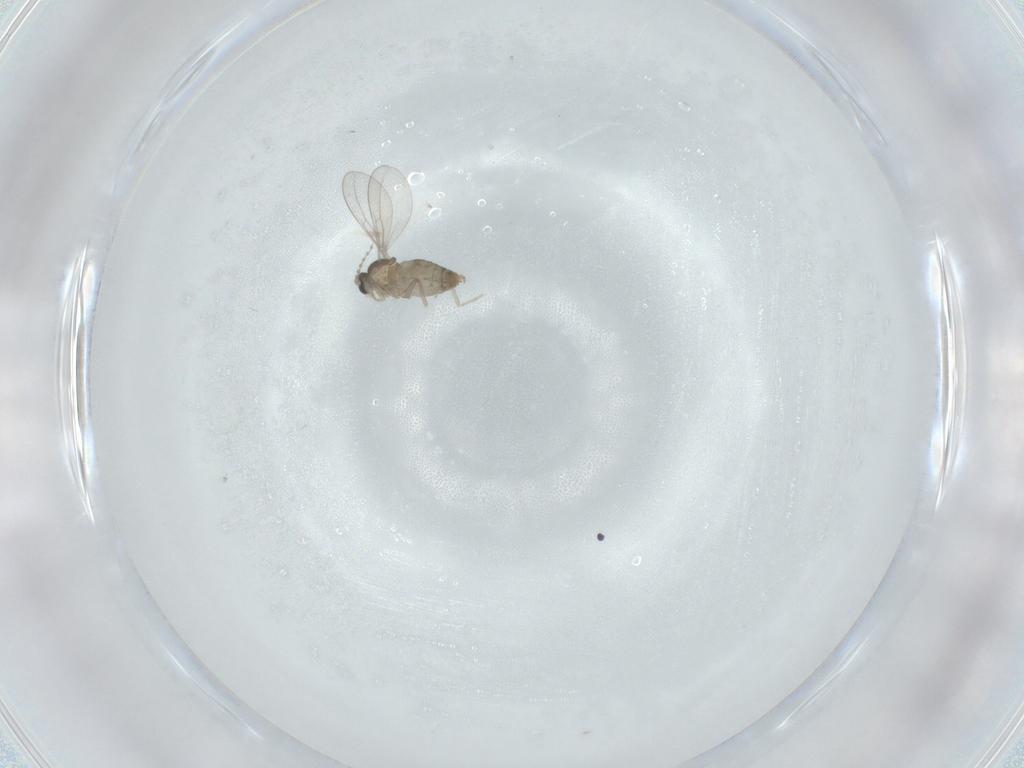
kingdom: Animalia
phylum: Arthropoda
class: Insecta
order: Diptera
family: Cecidomyiidae
